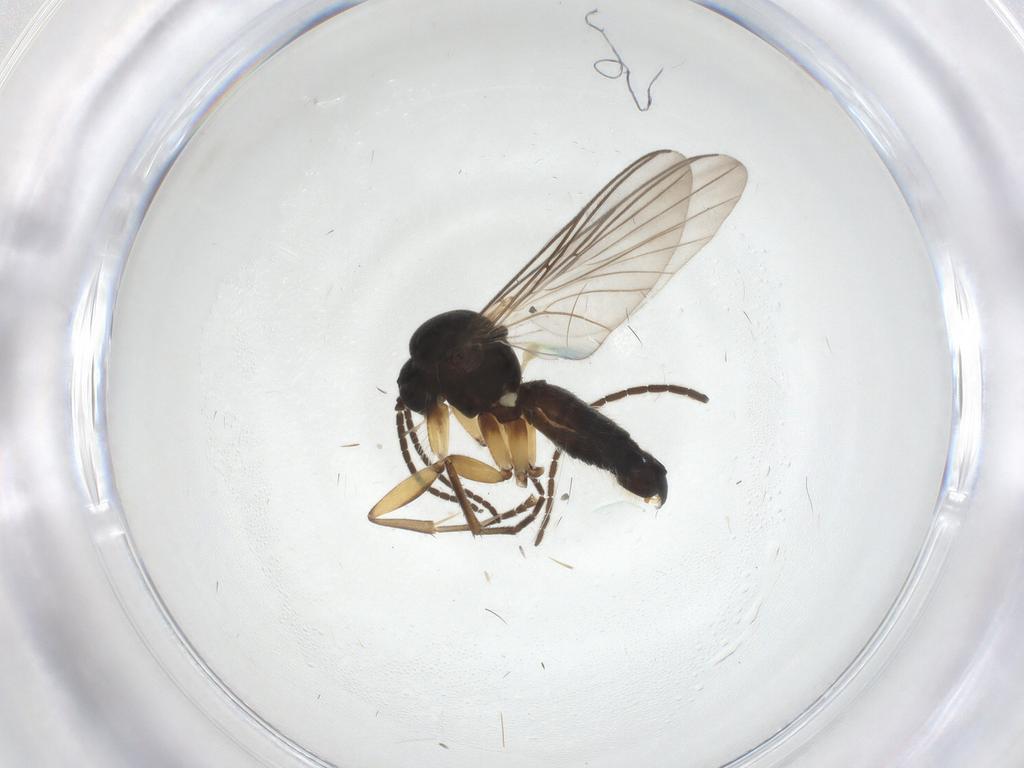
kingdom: Animalia
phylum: Arthropoda
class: Insecta
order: Diptera
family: Mycetophilidae
